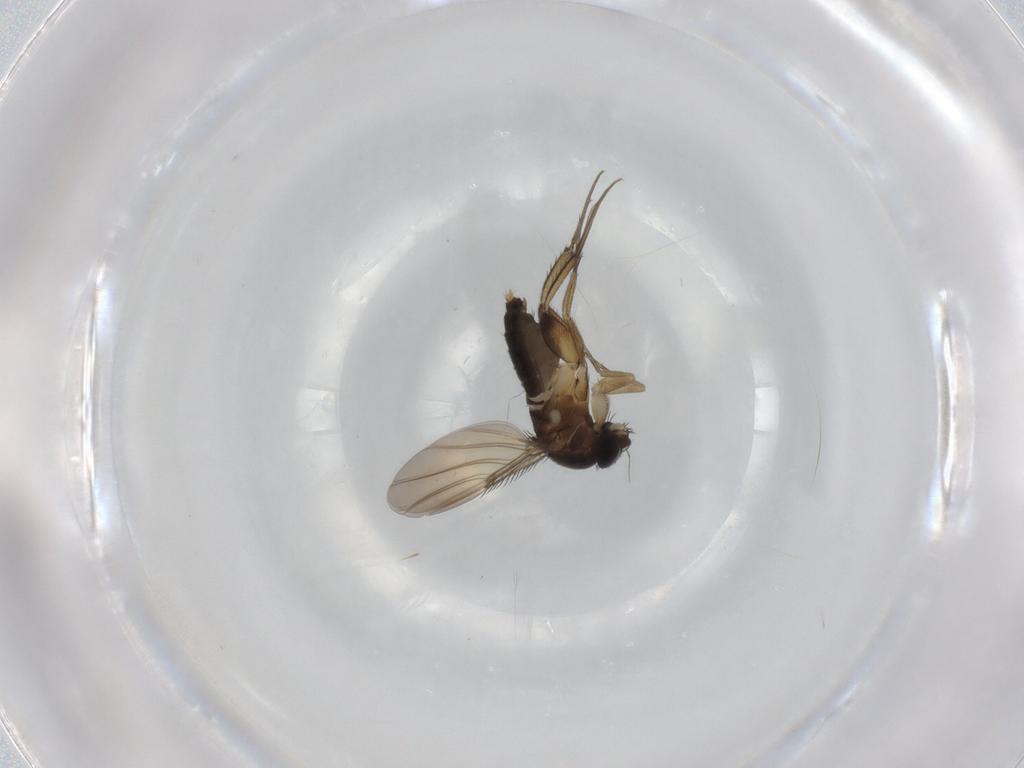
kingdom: Animalia
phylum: Arthropoda
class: Insecta
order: Diptera
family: Phoridae
